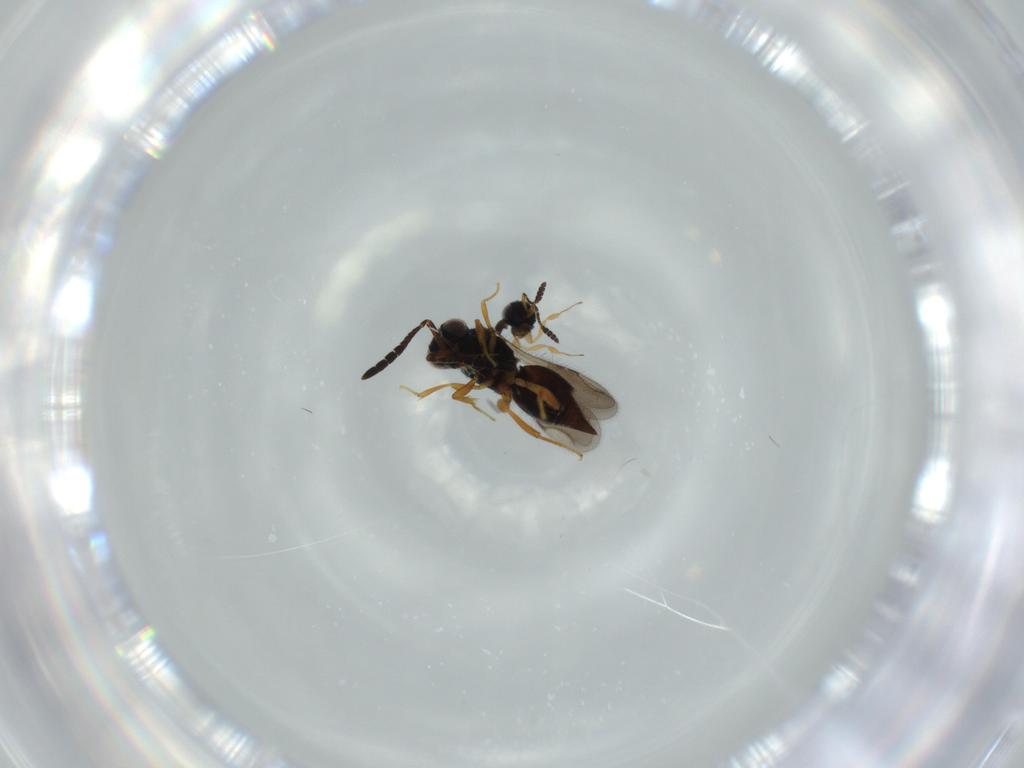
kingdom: Animalia
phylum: Arthropoda
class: Insecta
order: Hymenoptera
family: Scelionidae
